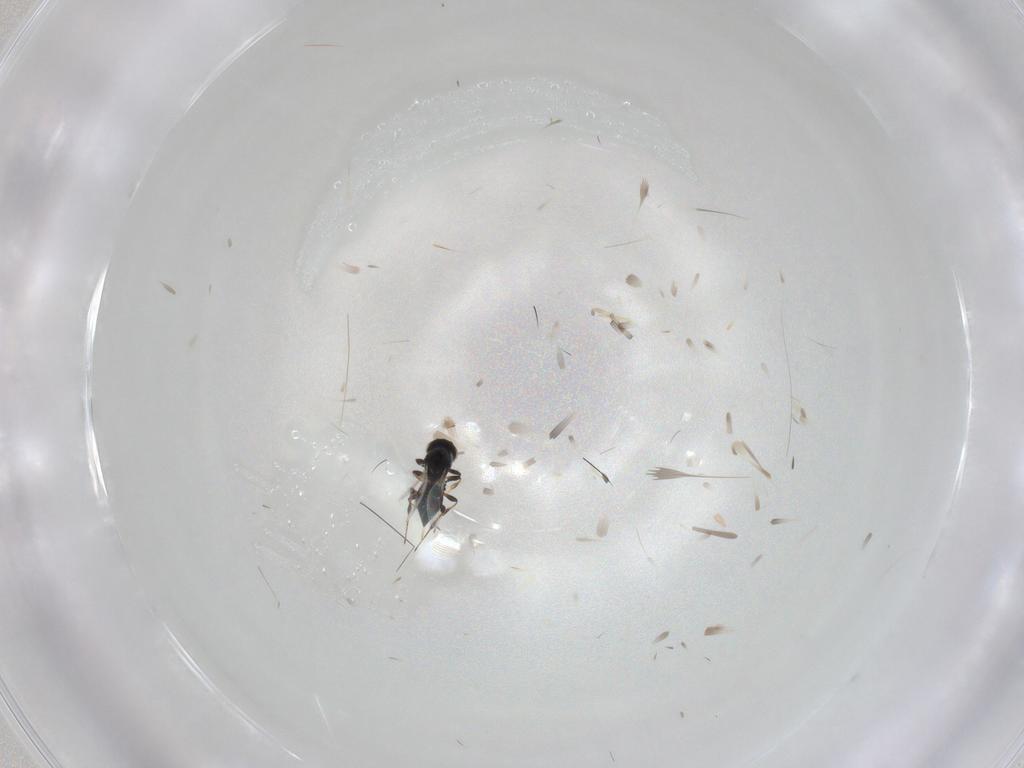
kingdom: Animalia
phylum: Arthropoda
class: Insecta
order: Hymenoptera
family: Platygastridae
